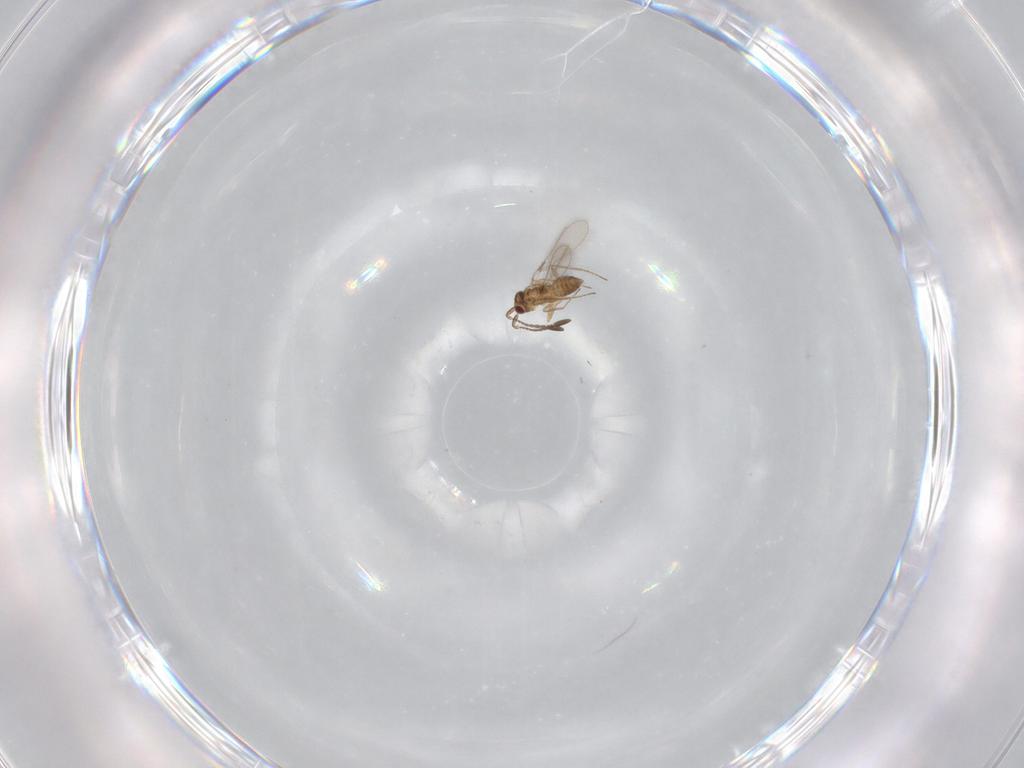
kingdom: Animalia
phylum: Arthropoda
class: Insecta
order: Hymenoptera
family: Mymaridae
